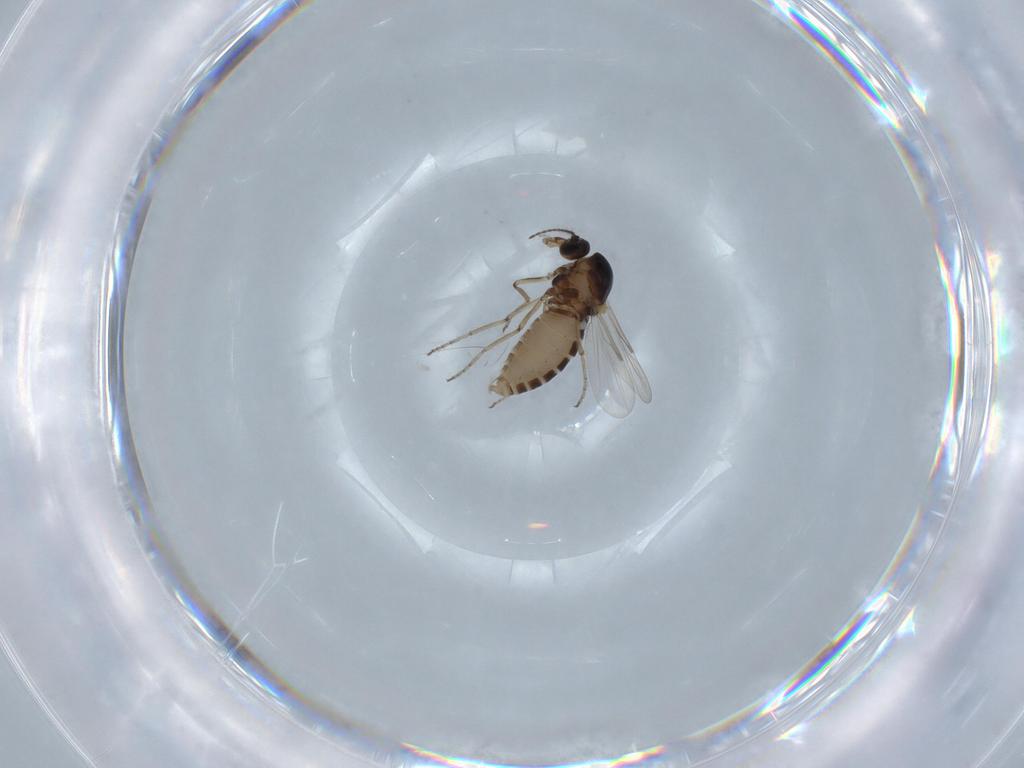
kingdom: Animalia
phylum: Arthropoda
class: Insecta
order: Diptera
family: Ceratopogonidae
